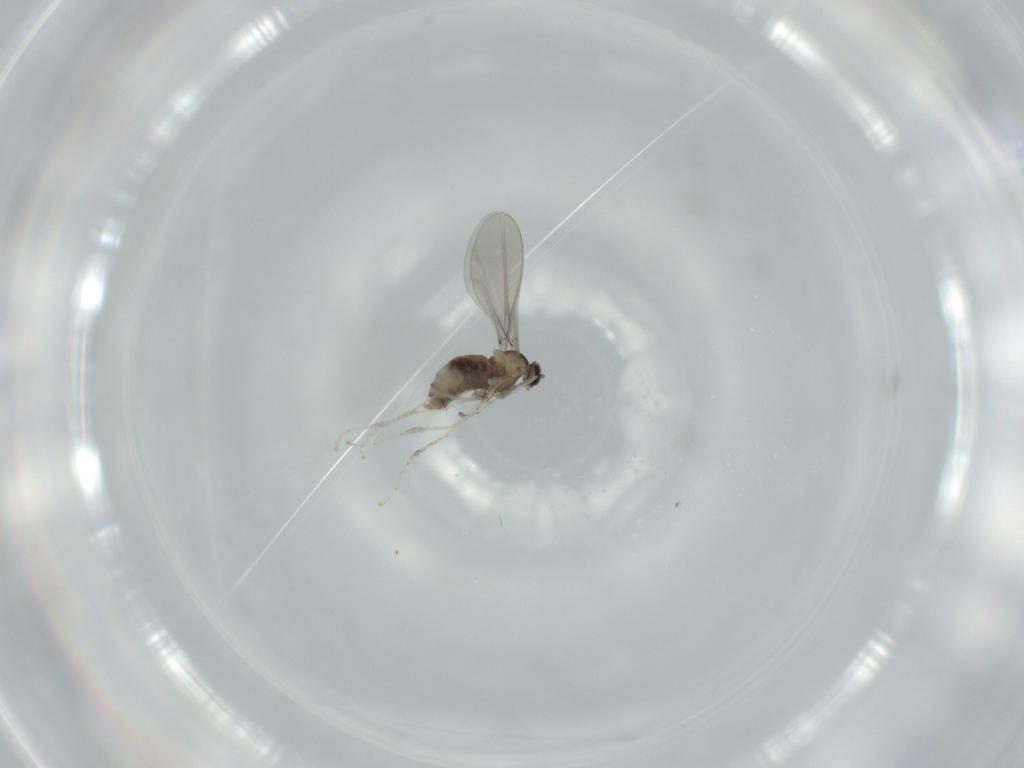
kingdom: Animalia
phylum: Arthropoda
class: Insecta
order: Diptera
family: Cecidomyiidae
